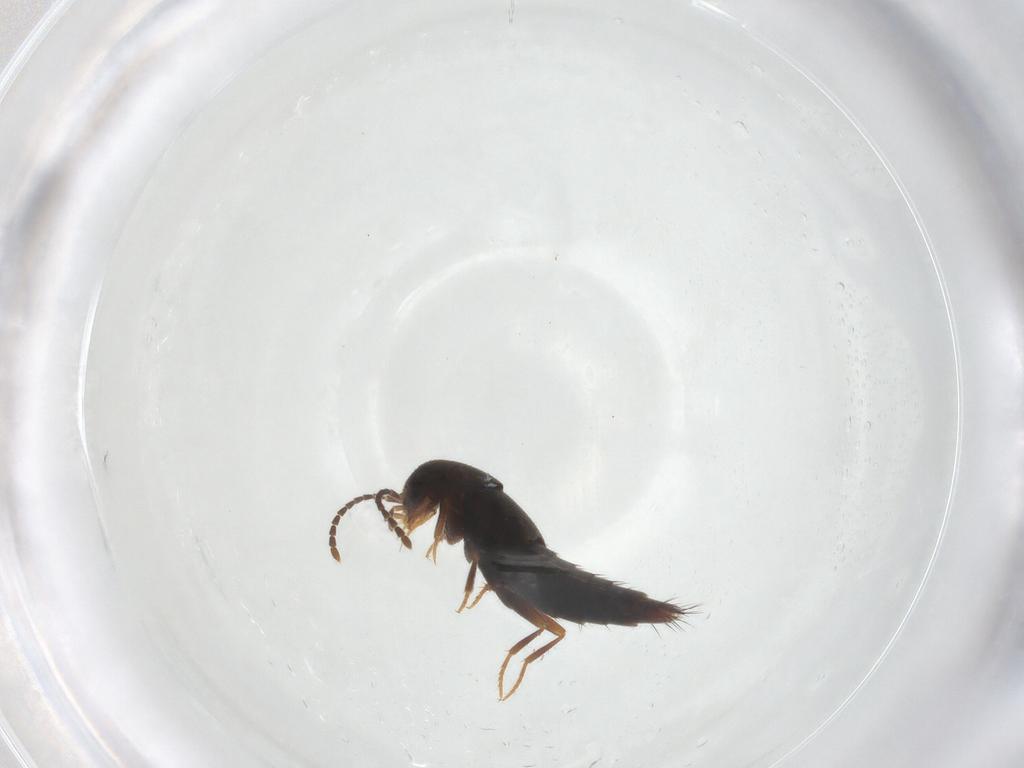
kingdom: Animalia
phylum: Arthropoda
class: Insecta
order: Coleoptera
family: Staphylinidae
